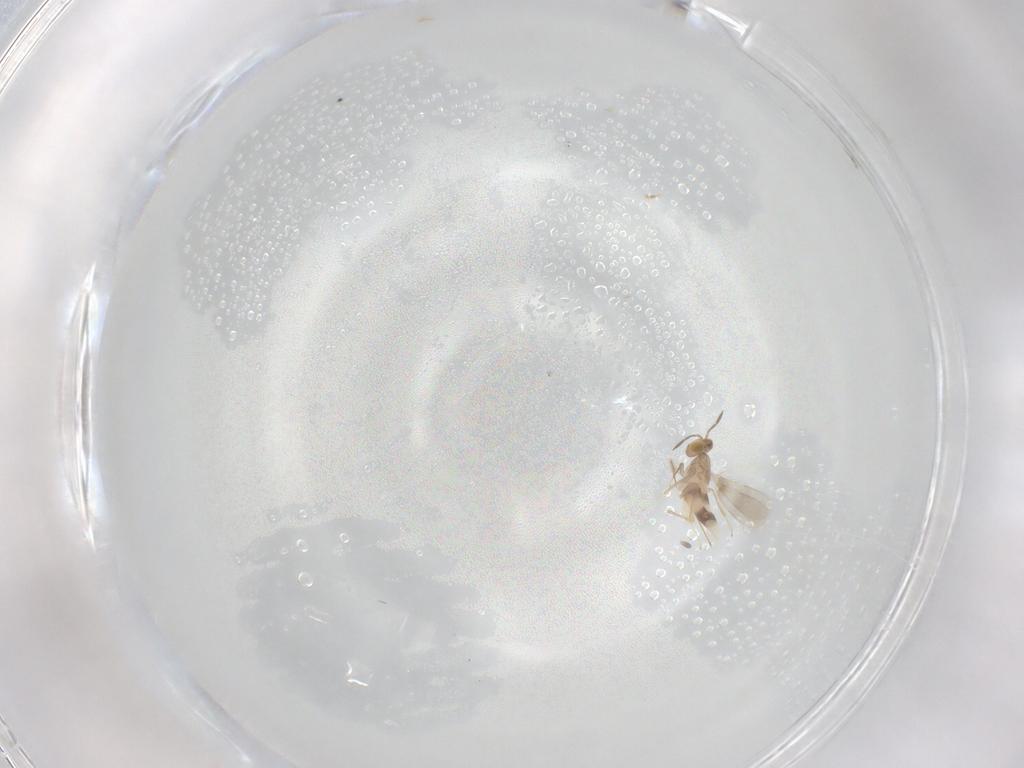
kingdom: Animalia
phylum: Arthropoda
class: Insecta
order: Hymenoptera
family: Aphelinidae
